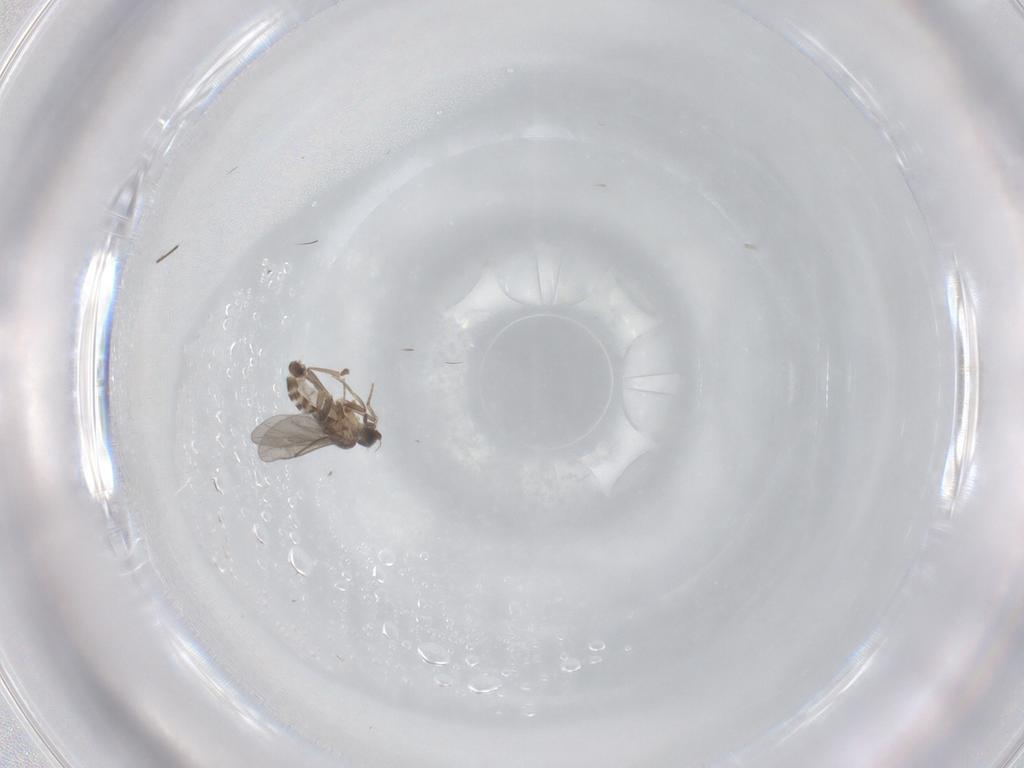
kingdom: Animalia
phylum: Arthropoda
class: Insecta
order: Diptera
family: Tabanidae
